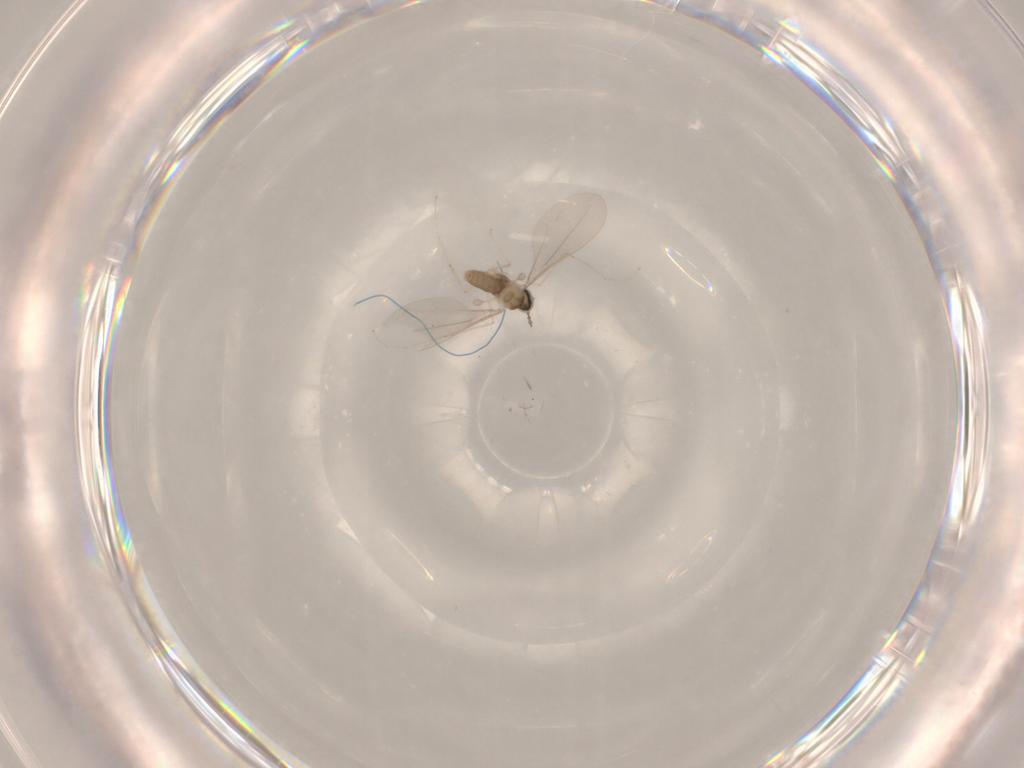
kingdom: Animalia
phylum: Arthropoda
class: Insecta
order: Diptera
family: Cecidomyiidae
